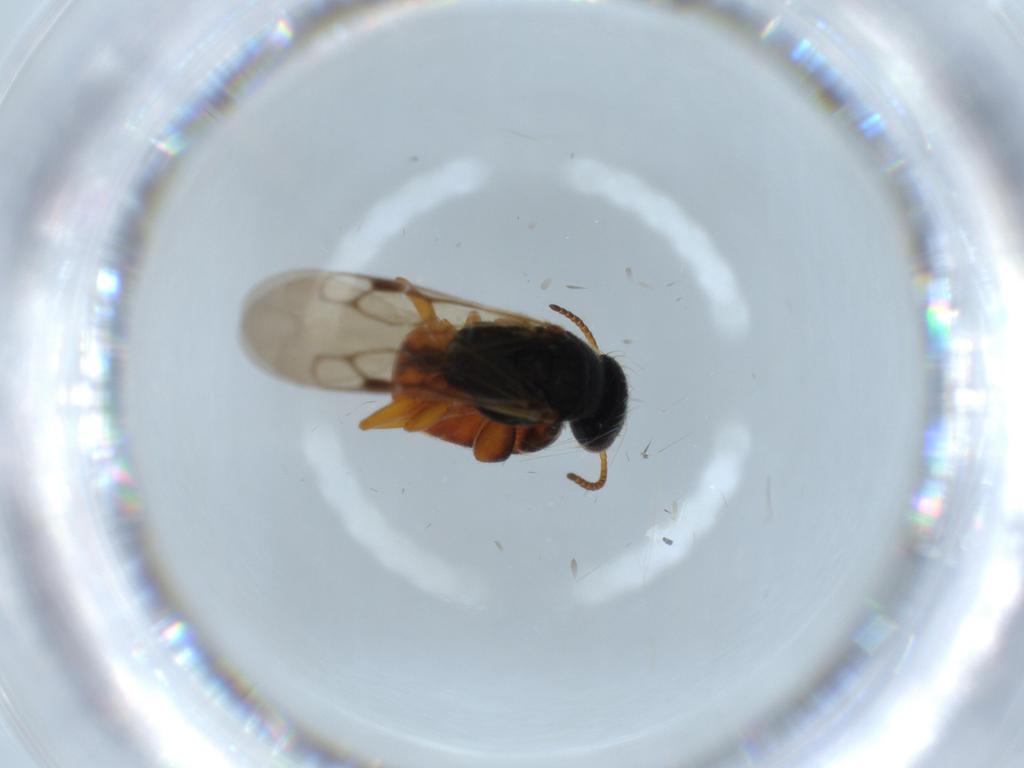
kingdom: Animalia
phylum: Arthropoda
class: Insecta
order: Hymenoptera
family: Bethylidae
